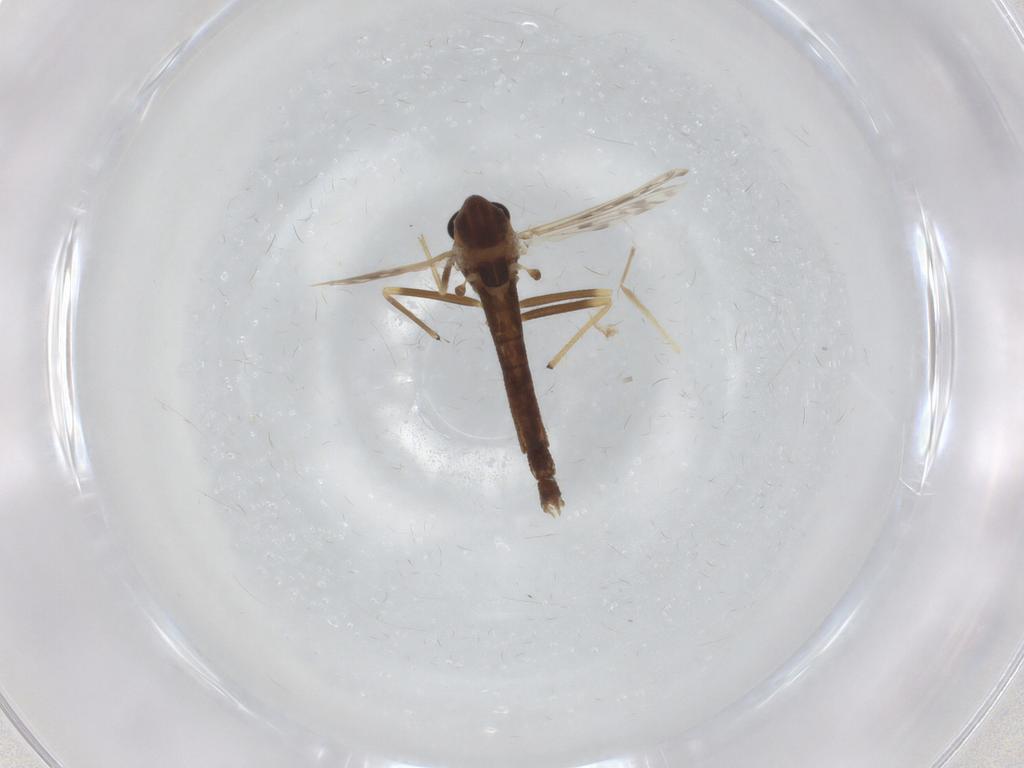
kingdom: Animalia
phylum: Arthropoda
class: Insecta
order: Diptera
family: Chironomidae
